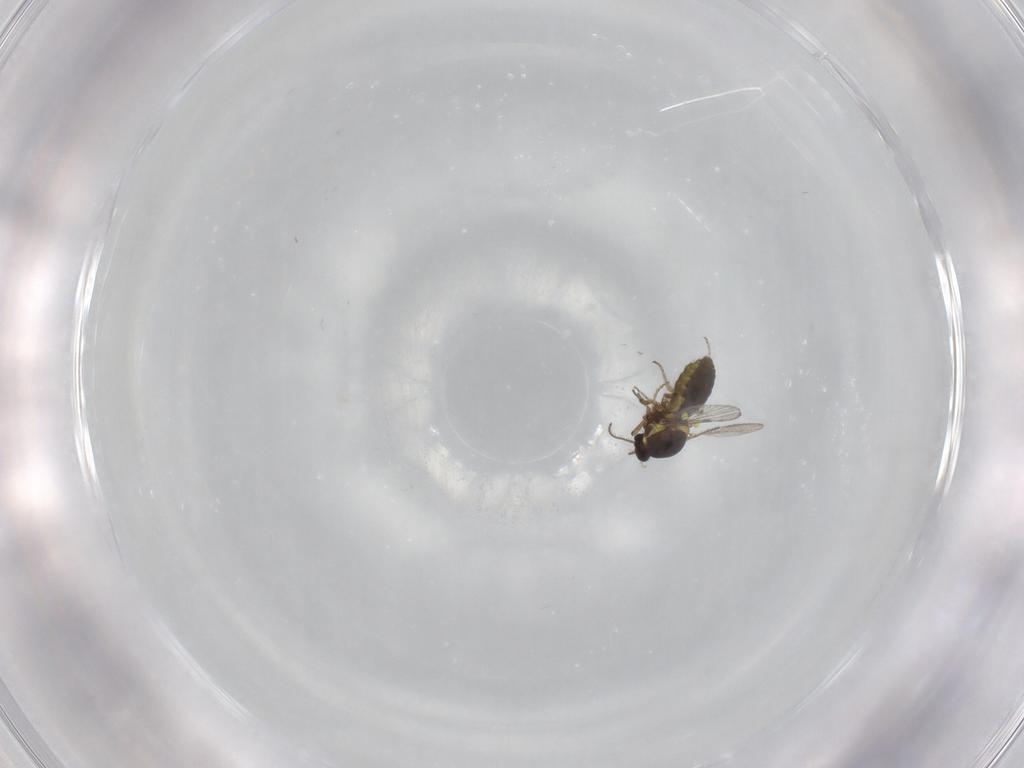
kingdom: Animalia
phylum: Arthropoda
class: Insecta
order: Diptera
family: Ceratopogonidae
